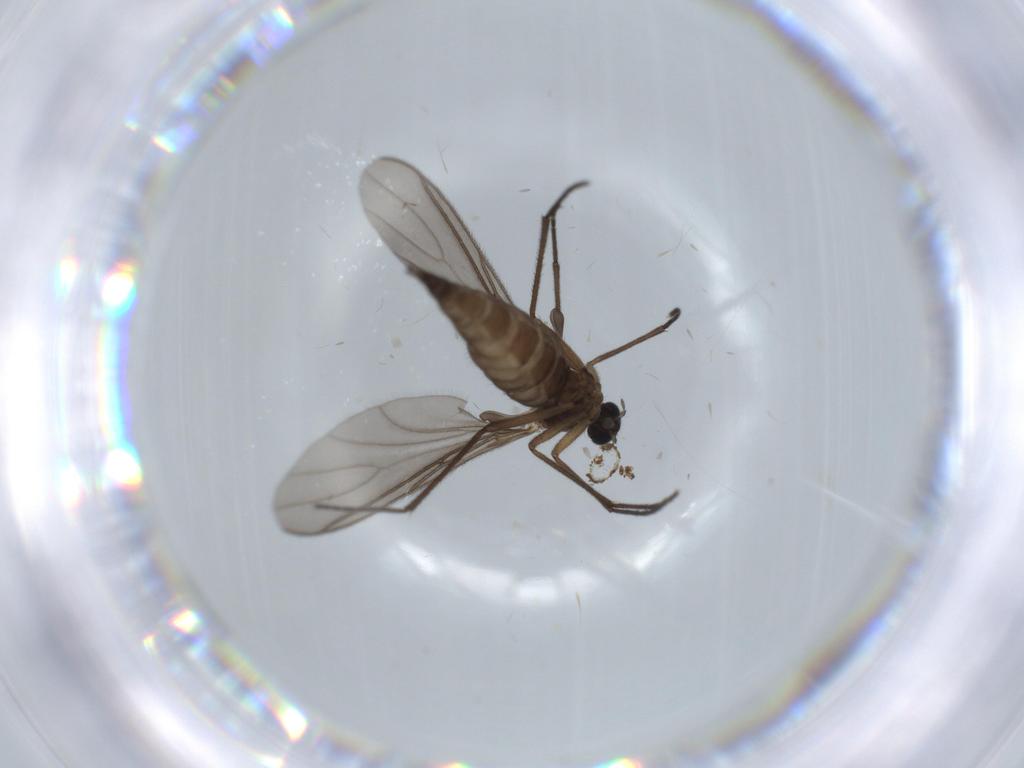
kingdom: Animalia
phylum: Arthropoda
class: Insecta
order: Diptera
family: Sciaridae
